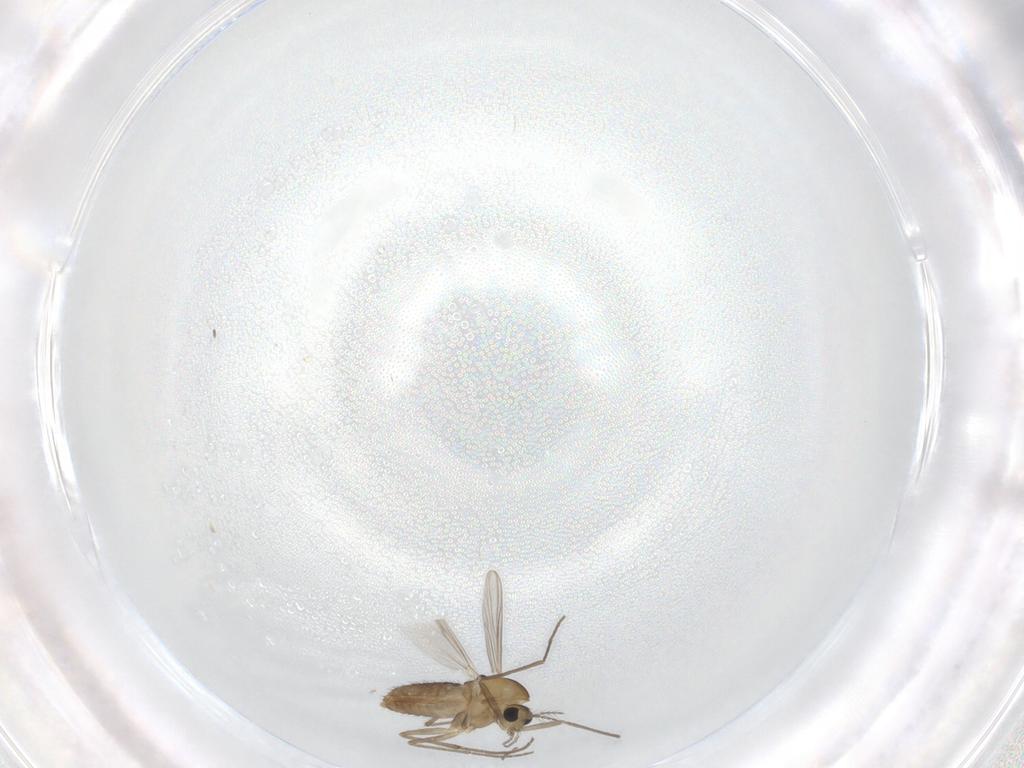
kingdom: Animalia
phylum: Arthropoda
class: Insecta
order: Diptera
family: Chironomidae
